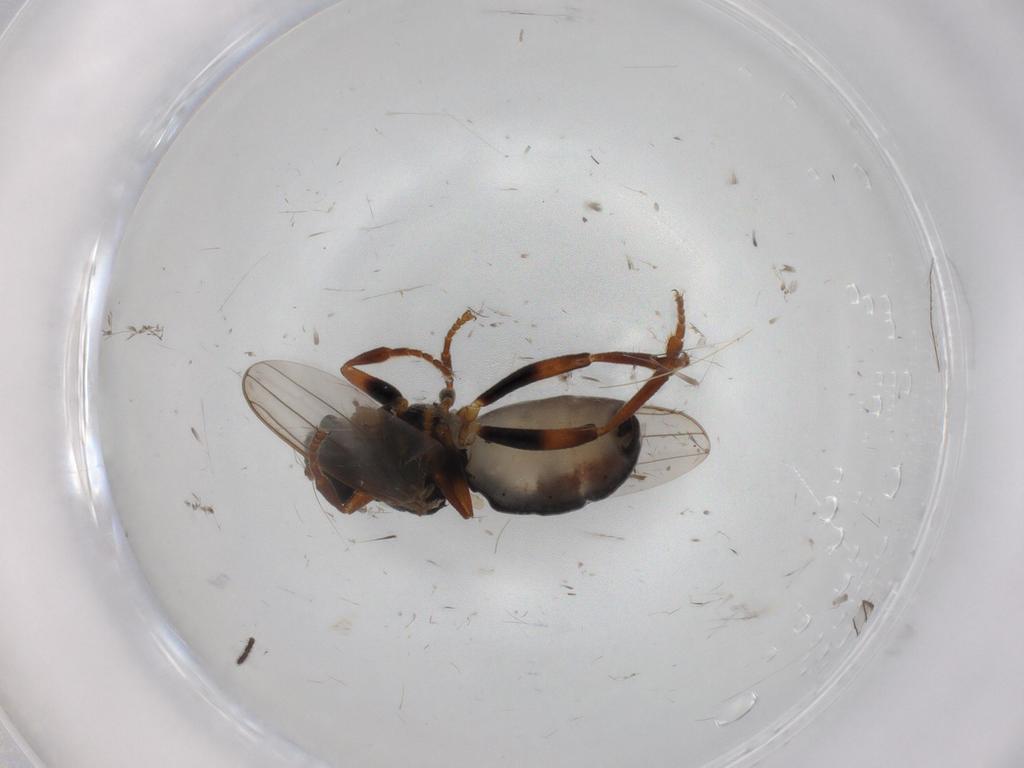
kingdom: Animalia
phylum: Arthropoda
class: Insecta
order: Diptera
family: Sphaeroceridae
